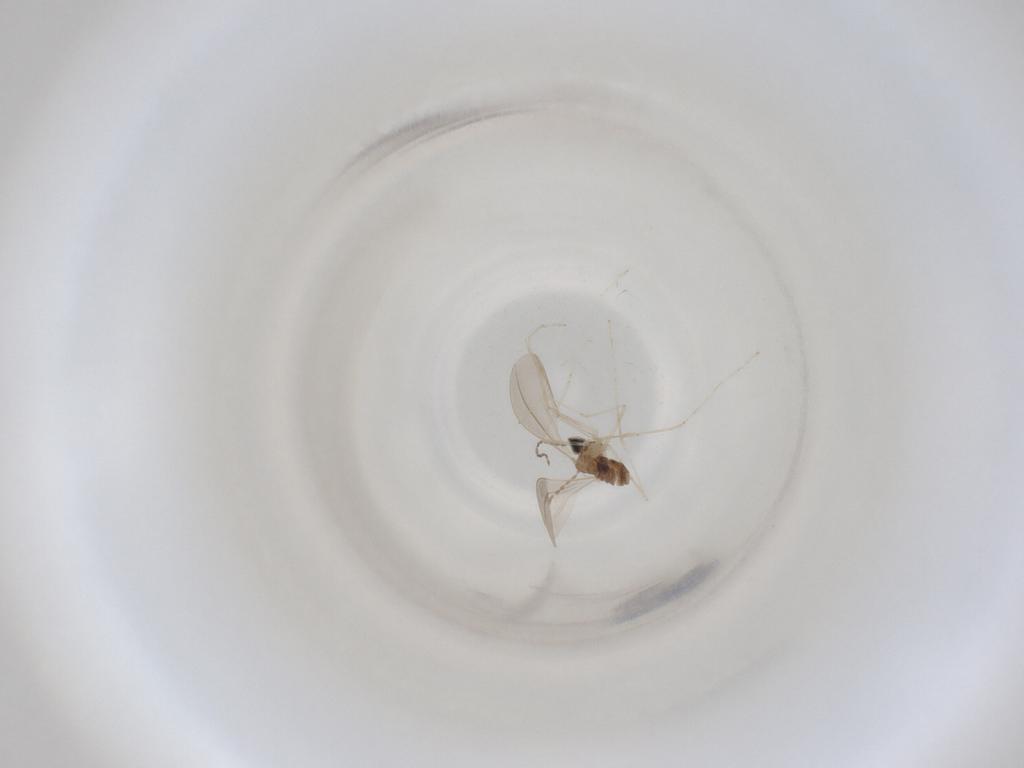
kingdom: Animalia
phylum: Arthropoda
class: Insecta
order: Diptera
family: Cecidomyiidae
